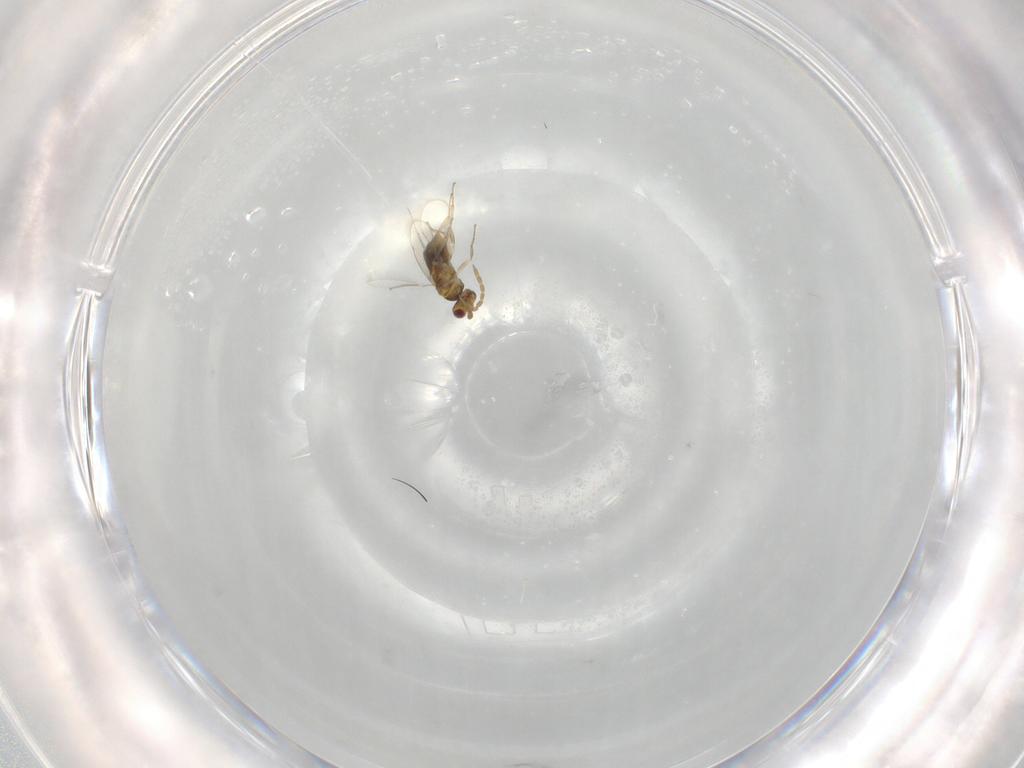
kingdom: Animalia
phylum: Arthropoda
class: Insecta
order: Hymenoptera
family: Aphelinidae
